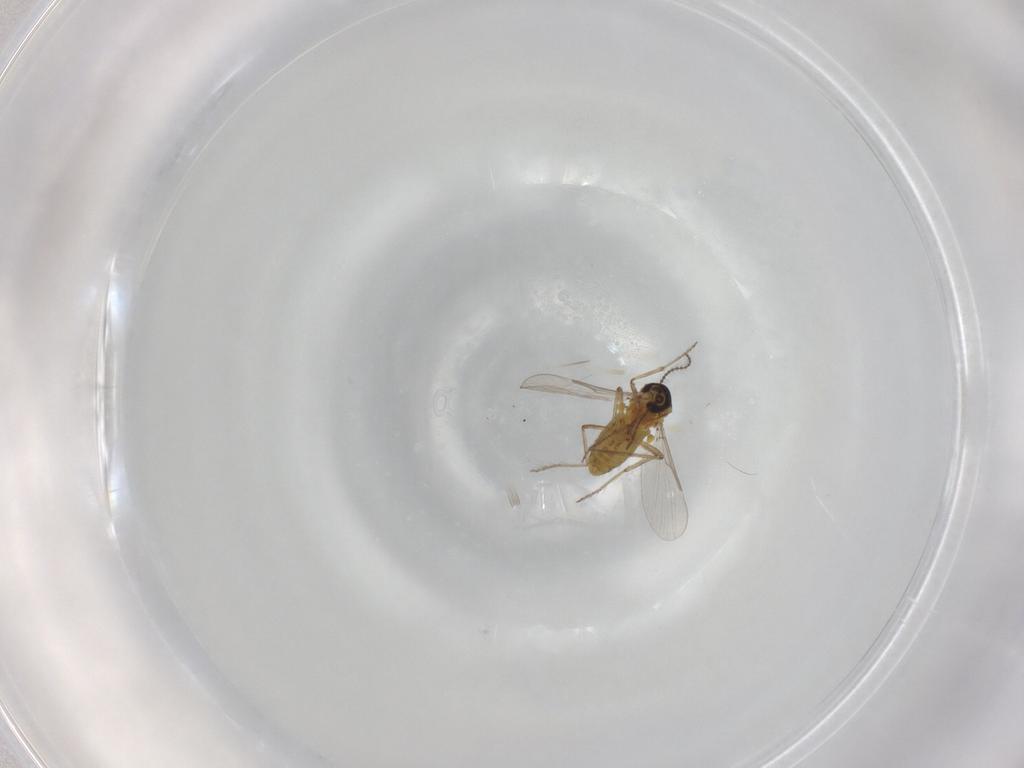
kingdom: Animalia
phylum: Arthropoda
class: Insecta
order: Diptera
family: Ceratopogonidae
